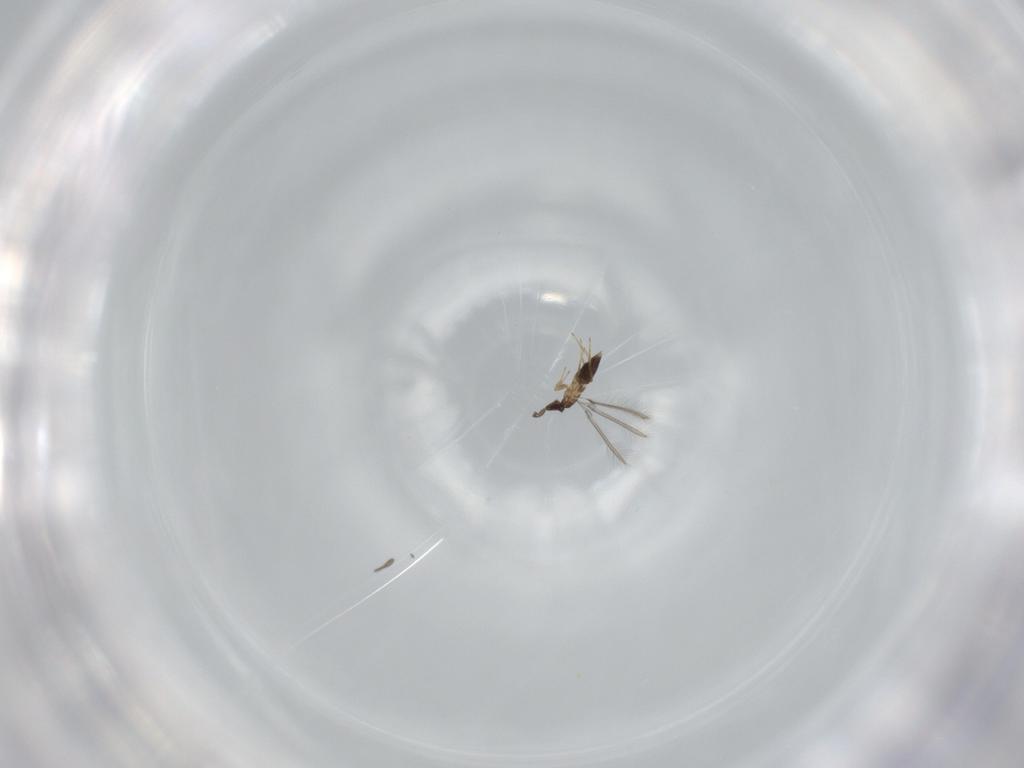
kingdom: Animalia
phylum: Arthropoda
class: Insecta
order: Hymenoptera
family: Mymaridae
